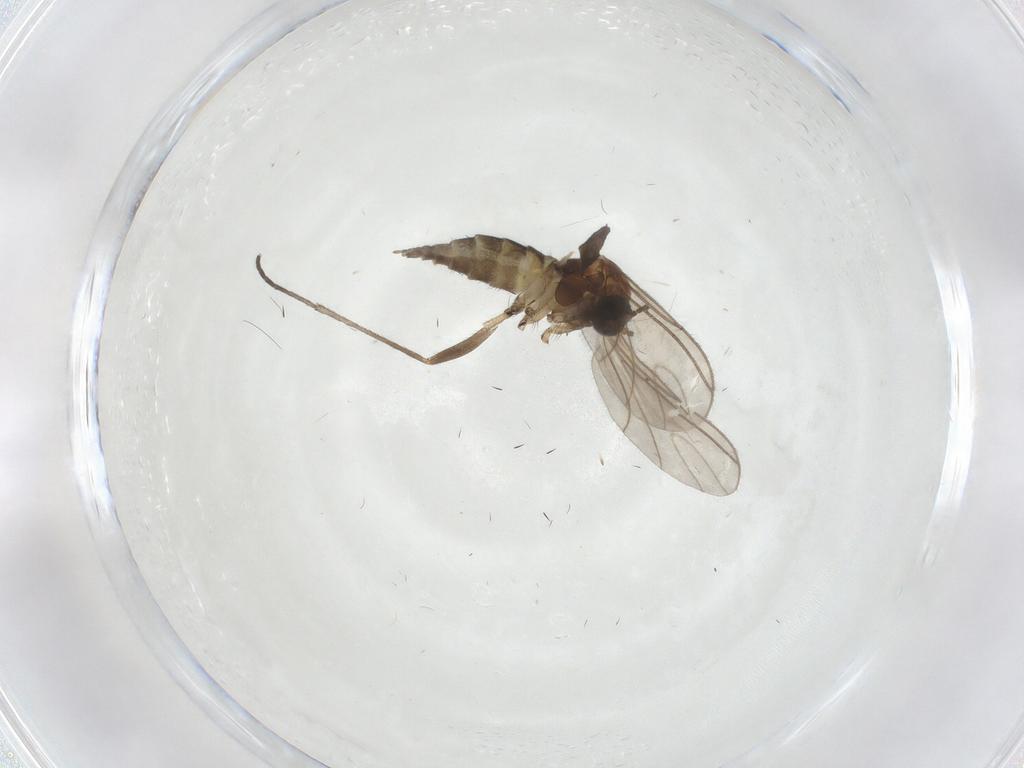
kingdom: Animalia
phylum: Arthropoda
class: Insecta
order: Diptera
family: Sciaridae
